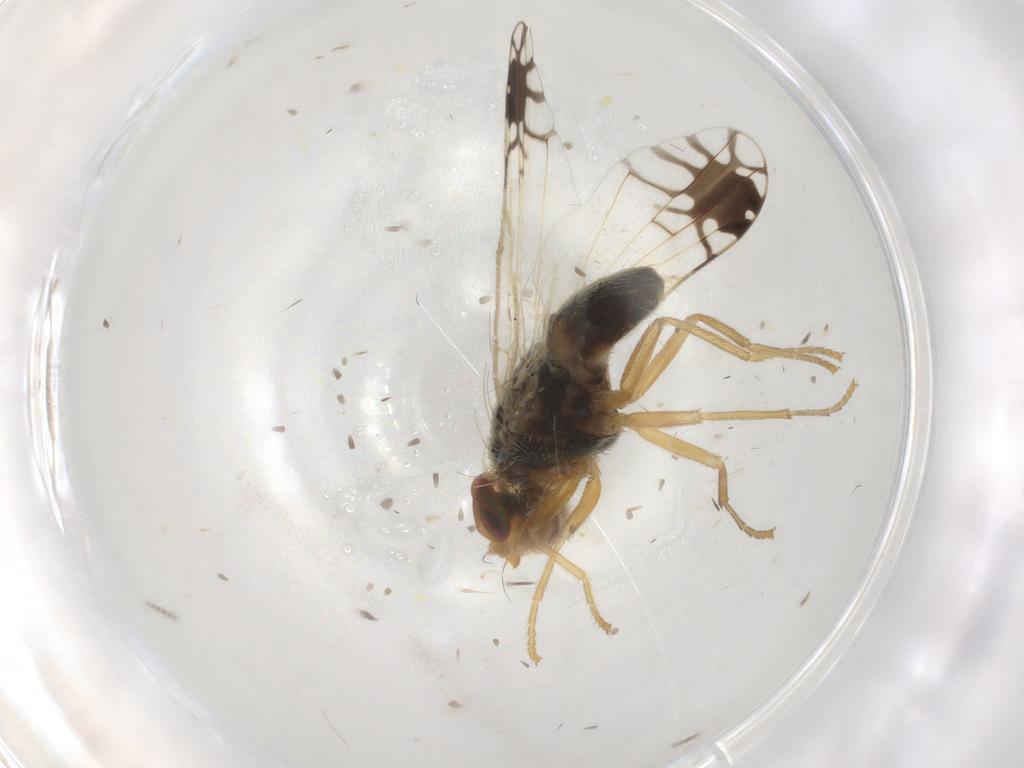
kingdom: Animalia
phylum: Arthropoda
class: Insecta
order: Diptera
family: Tephritidae
